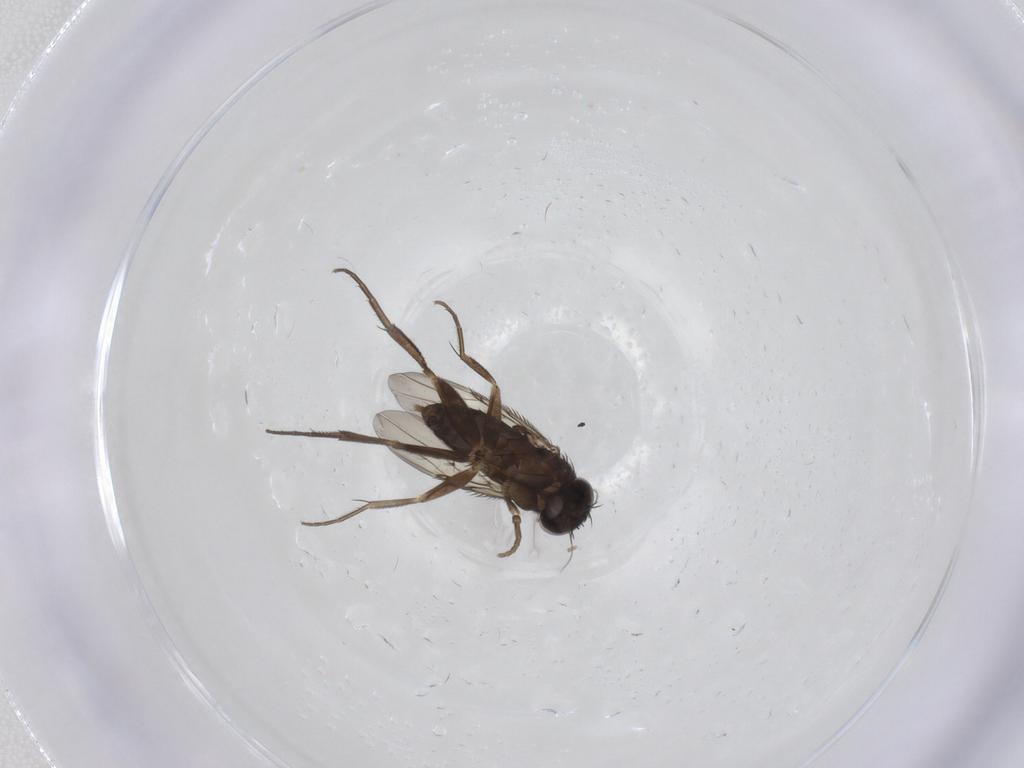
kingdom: Animalia
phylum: Arthropoda
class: Insecta
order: Diptera
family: Phoridae
